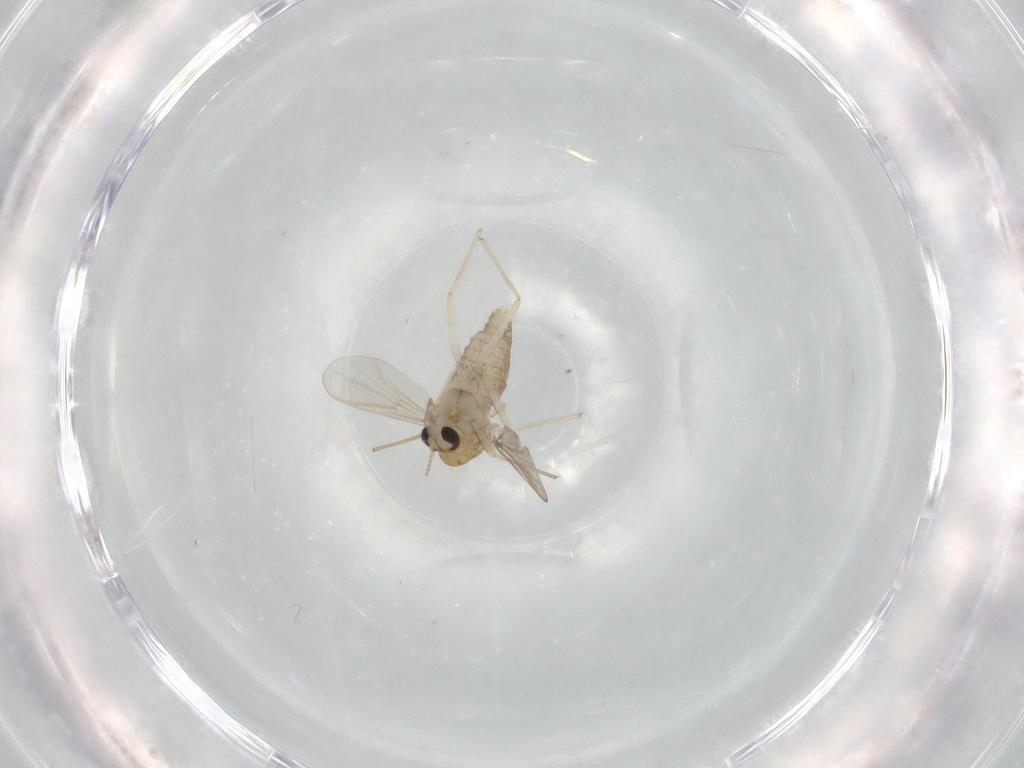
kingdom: Animalia
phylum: Arthropoda
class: Insecta
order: Diptera
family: Chironomidae
